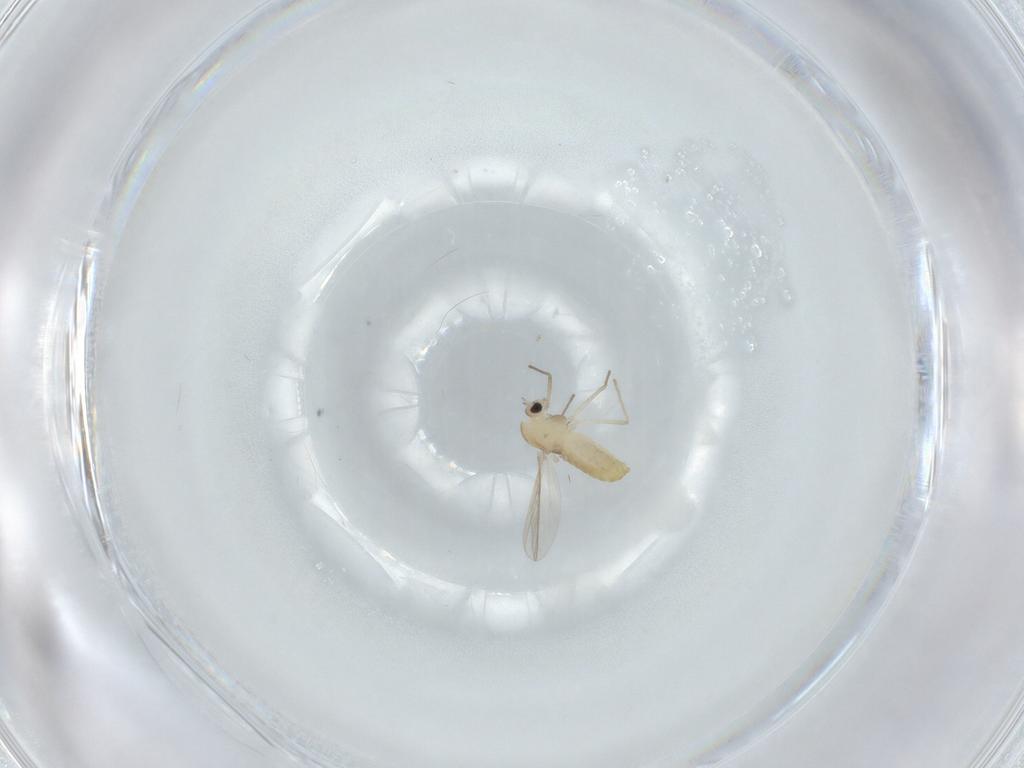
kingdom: Animalia
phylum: Arthropoda
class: Insecta
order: Diptera
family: Chironomidae
